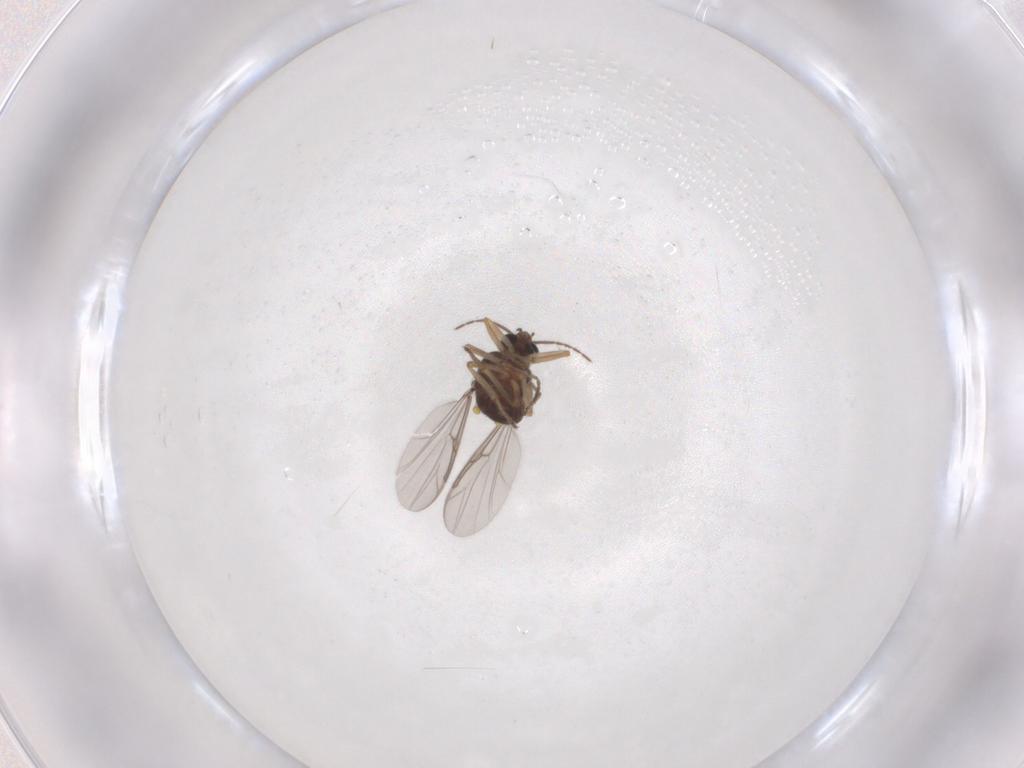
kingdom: Animalia
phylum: Arthropoda
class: Insecta
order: Diptera
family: Ceratopogonidae
